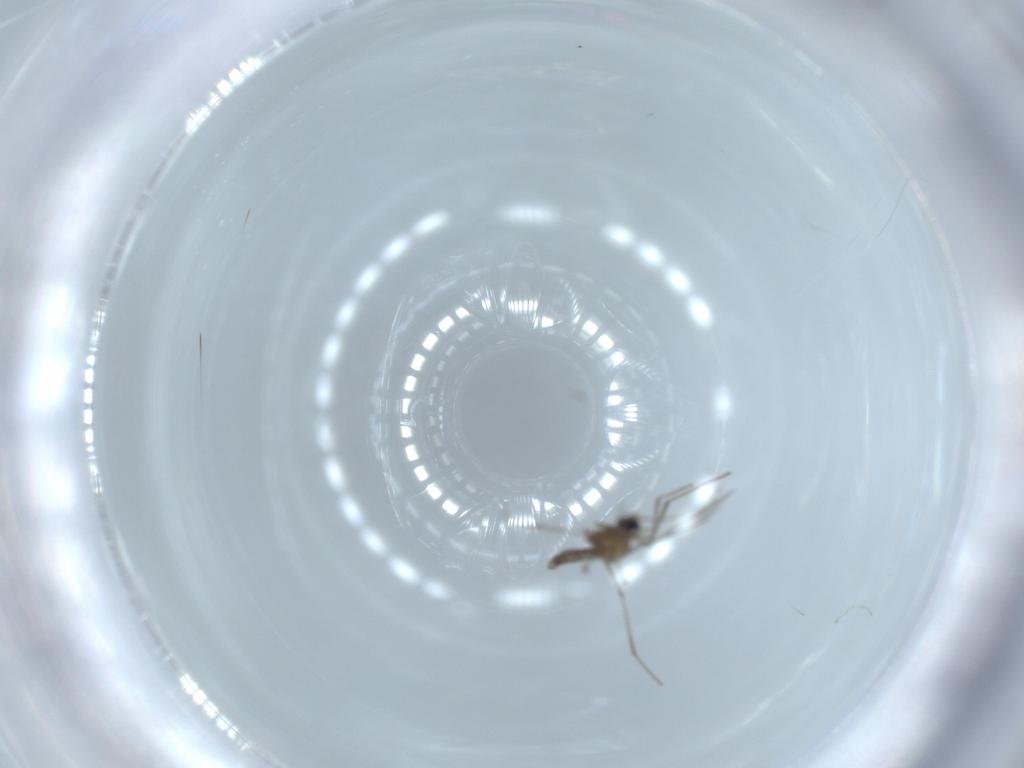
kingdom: Animalia
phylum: Arthropoda
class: Insecta
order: Diptera
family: Chironomidae
